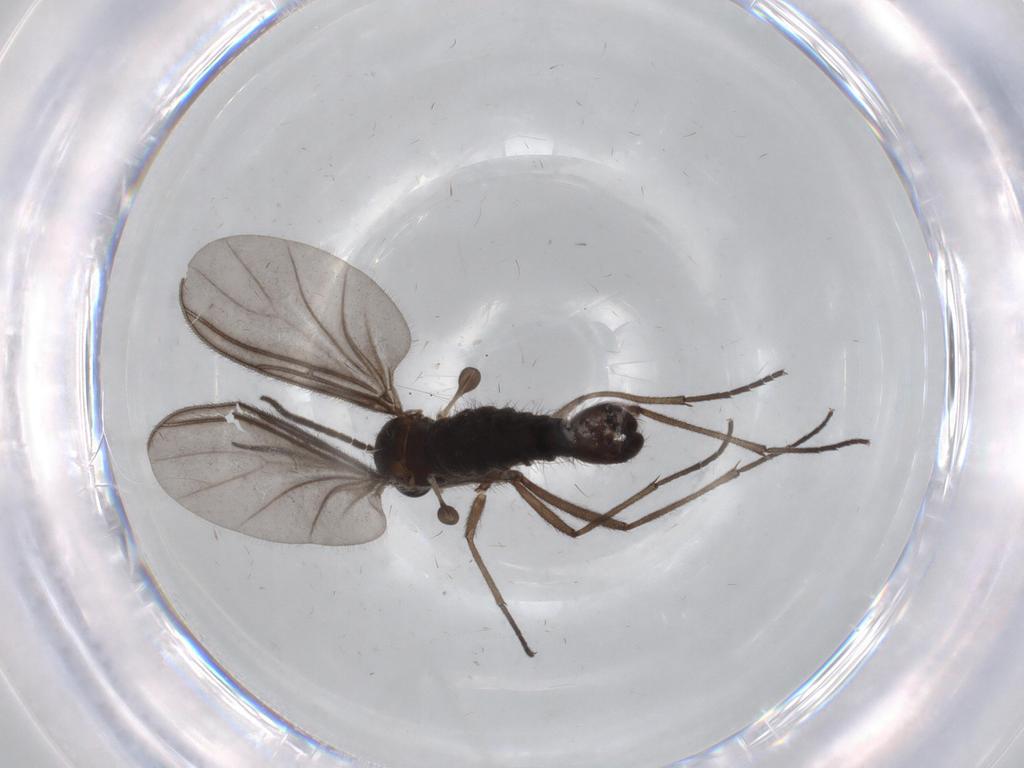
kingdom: Animalia
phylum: Arthropoda
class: Insecta
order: Diptera
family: Sciaridae
